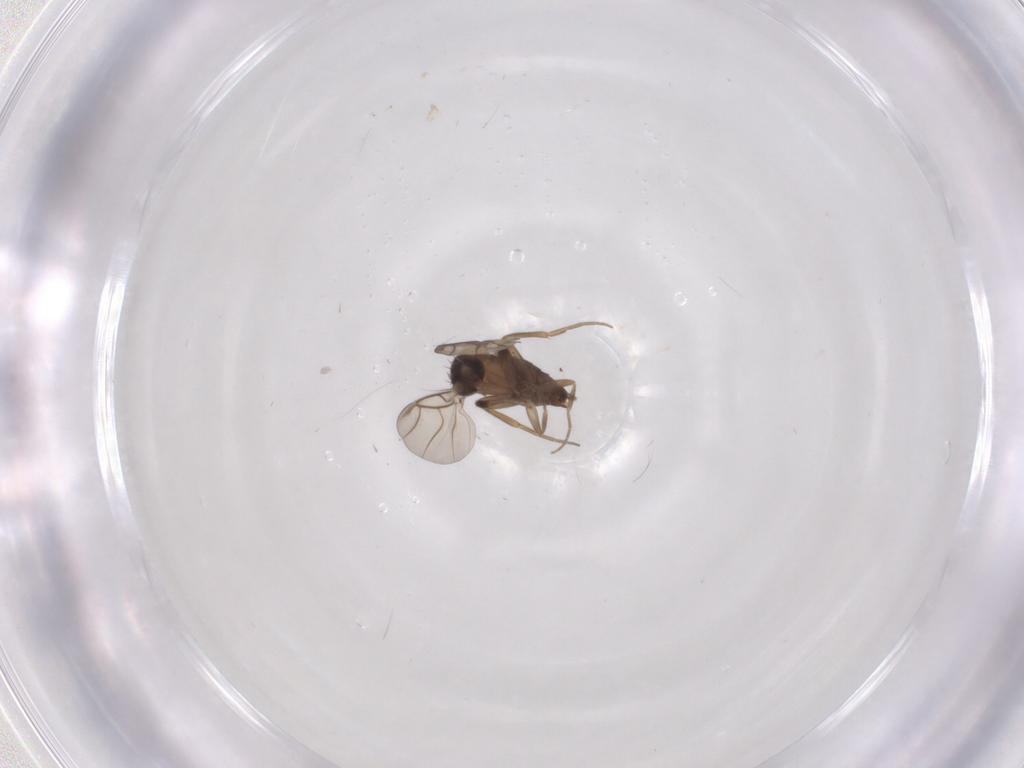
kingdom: Animalia
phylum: Arthropoda
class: Insecta
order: Diptera
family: Phoridae
